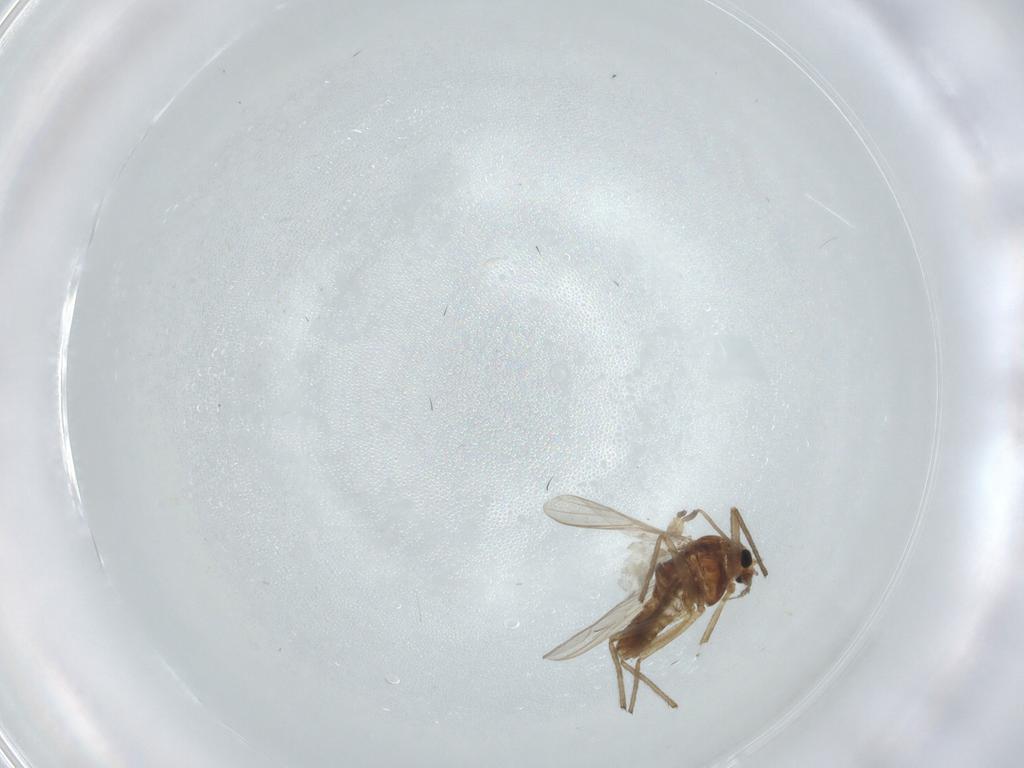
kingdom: Animalia
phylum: Arthropoda
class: Insecta
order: Diptera
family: Chironomidae
